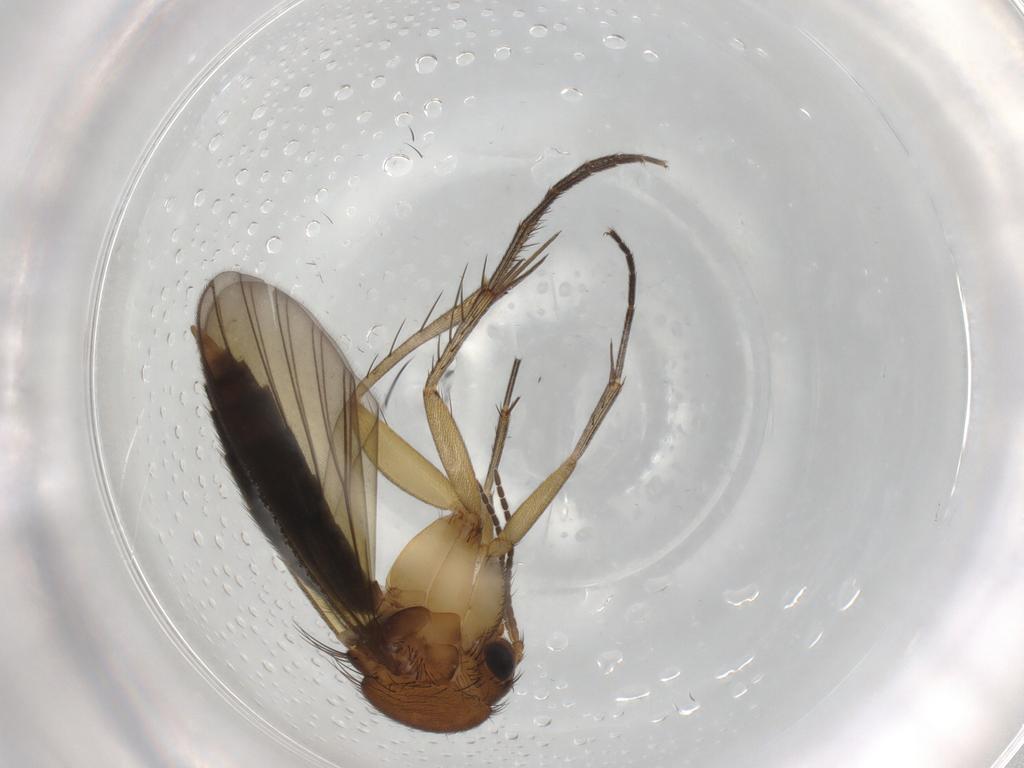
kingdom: Animalia
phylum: Arthropoda
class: Insecta
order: Diptera
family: Mycetophilidae
